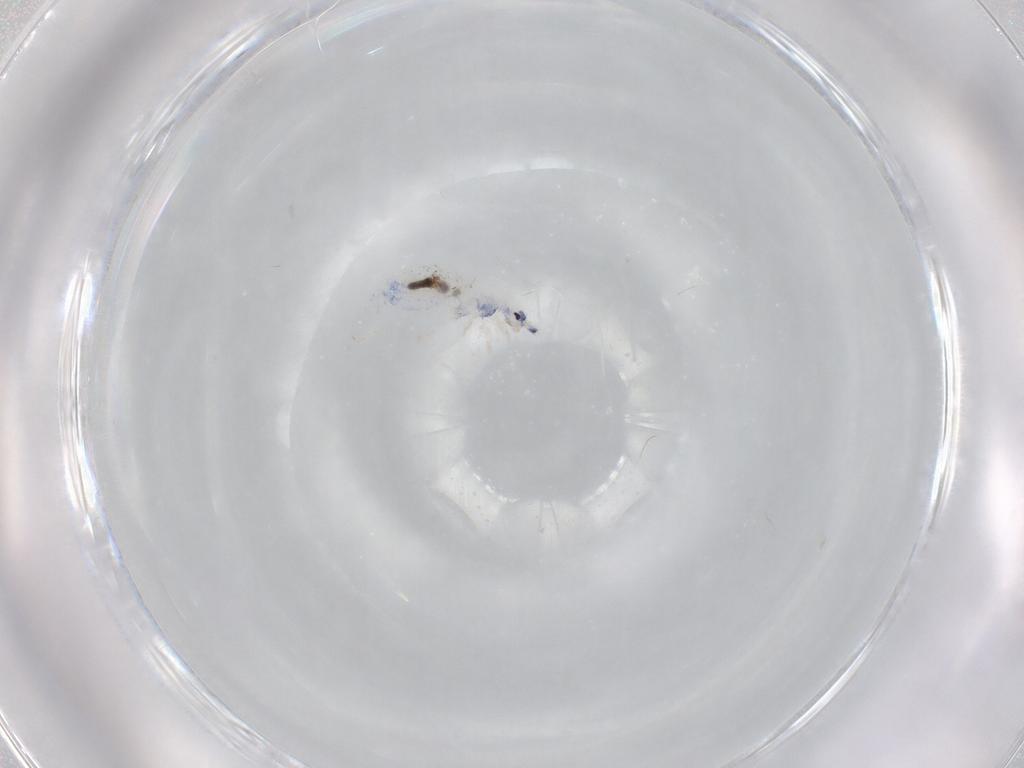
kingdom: Animalia
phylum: Arthropoda
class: Collembola
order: Entomobryomorpha
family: Entomobryidae
